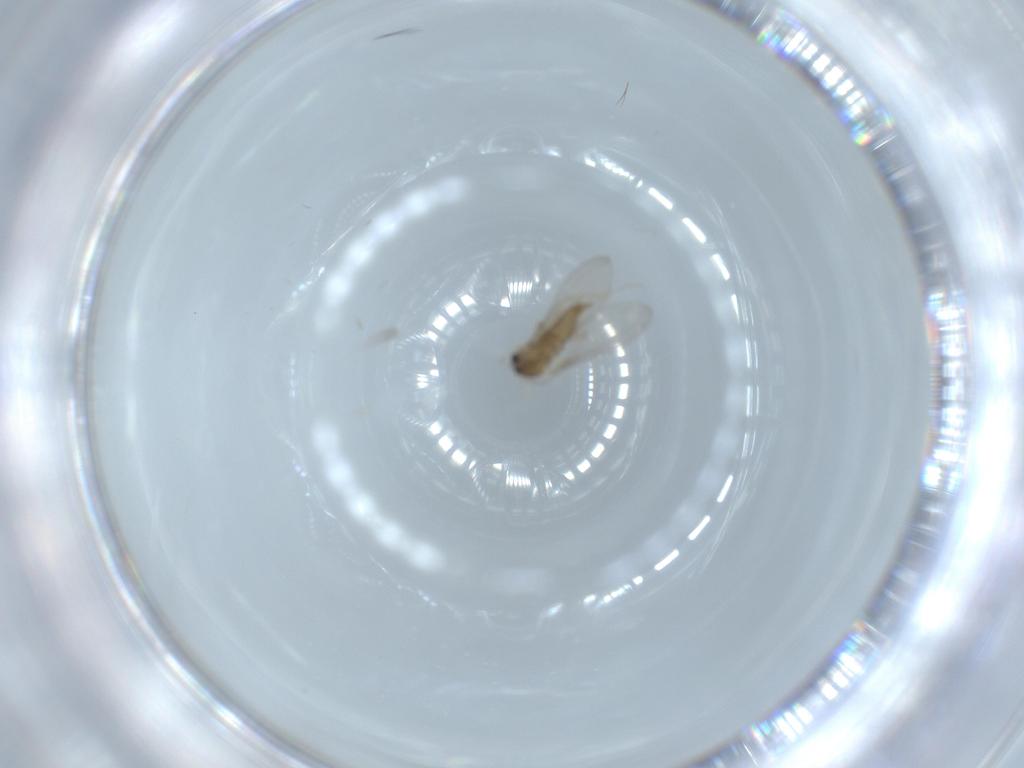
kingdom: Animalia
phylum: Arthropoda
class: Insecta
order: Diptera
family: Cecidomyiidae
